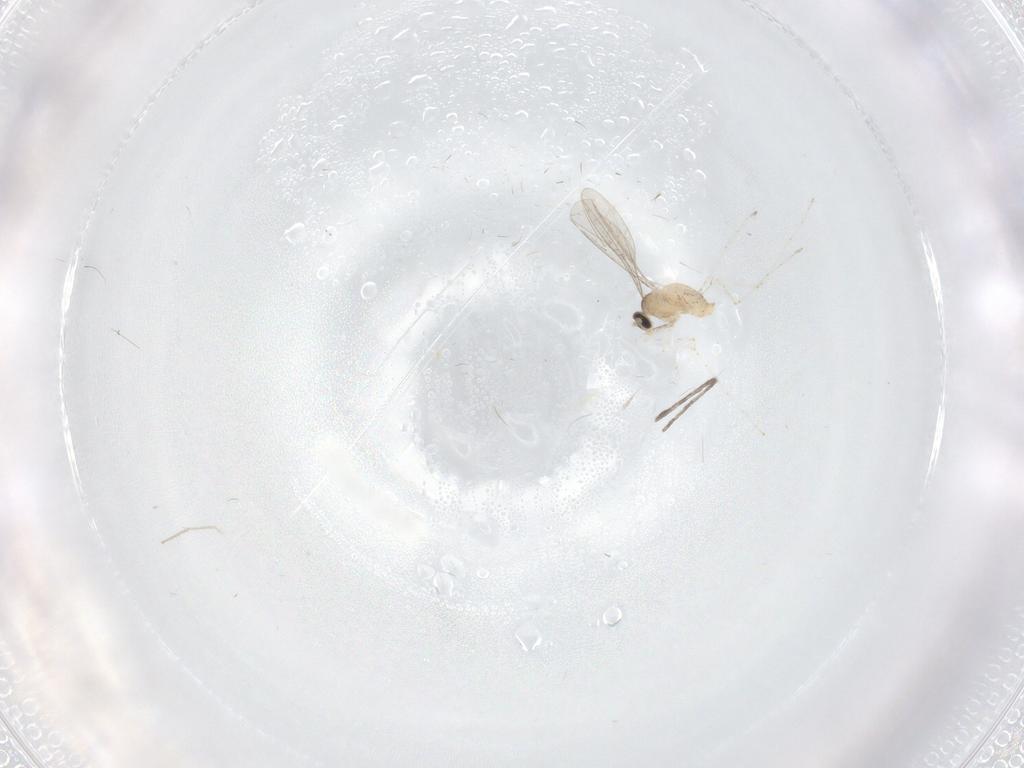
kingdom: Animalia
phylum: Arthropoda
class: Insecta
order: Diptera
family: Cecidomyiidae
